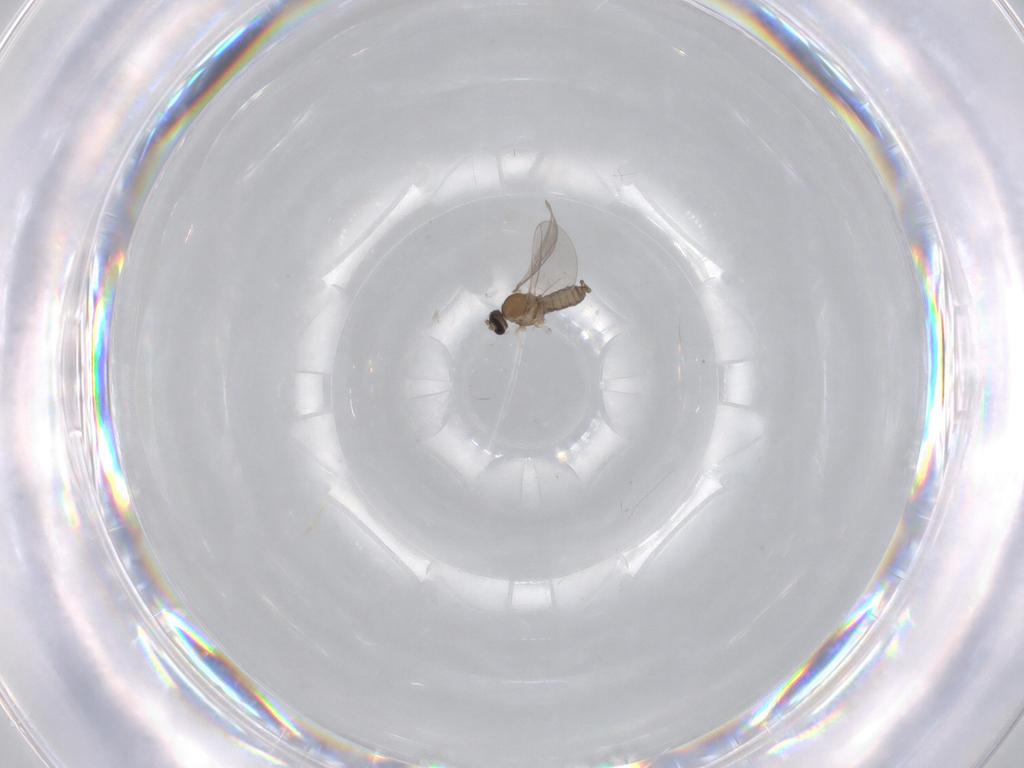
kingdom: Animalia
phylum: Arthropoda
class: Insecta
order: Diptera
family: Cecidomyiidae
